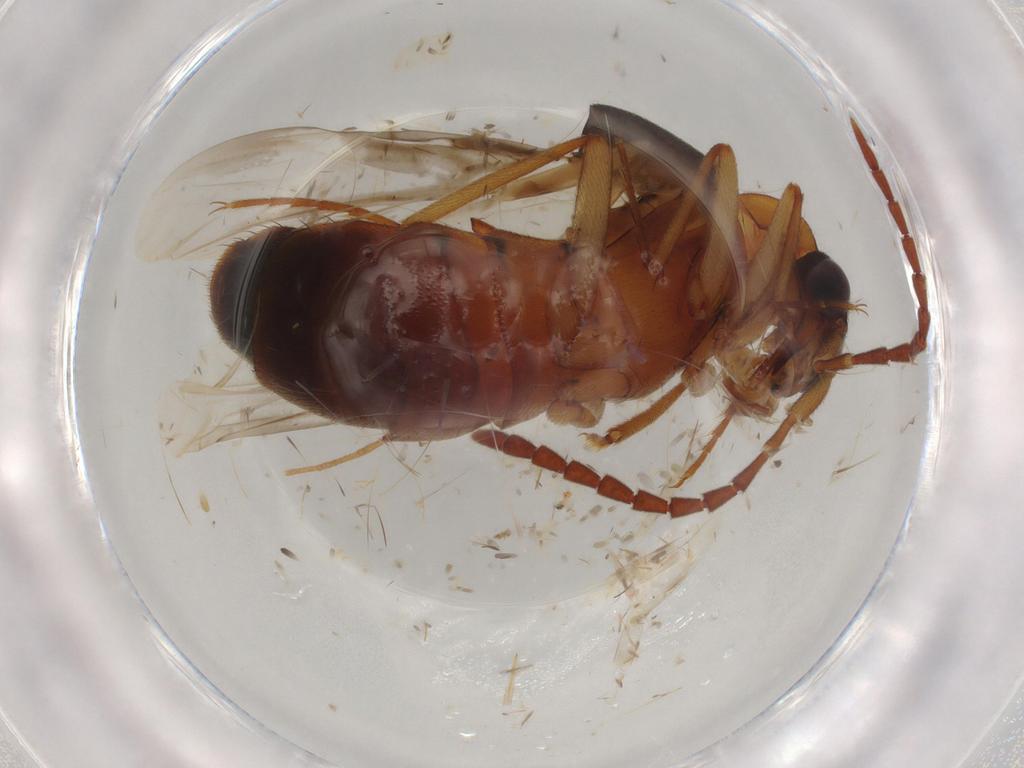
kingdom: Animalia
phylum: Arthropoda
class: Insecta
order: Coleoptera
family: Staphylinidae
